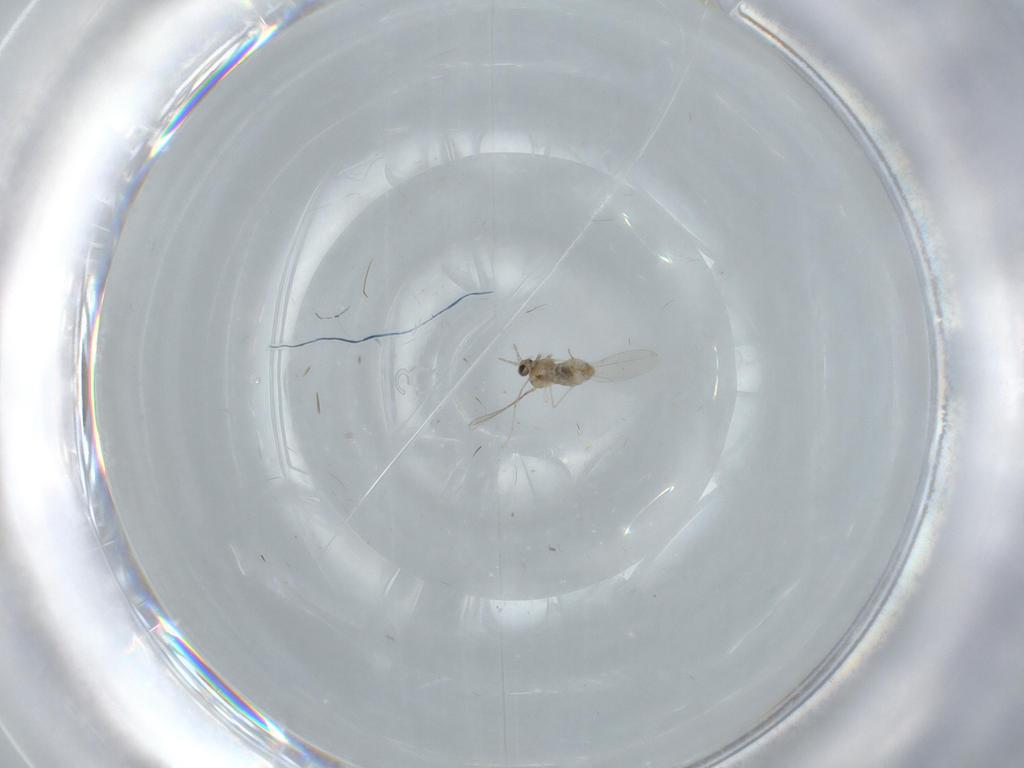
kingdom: Animalia
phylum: Arthropoda
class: Insecta
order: Diptera
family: Cecidomyiidae
